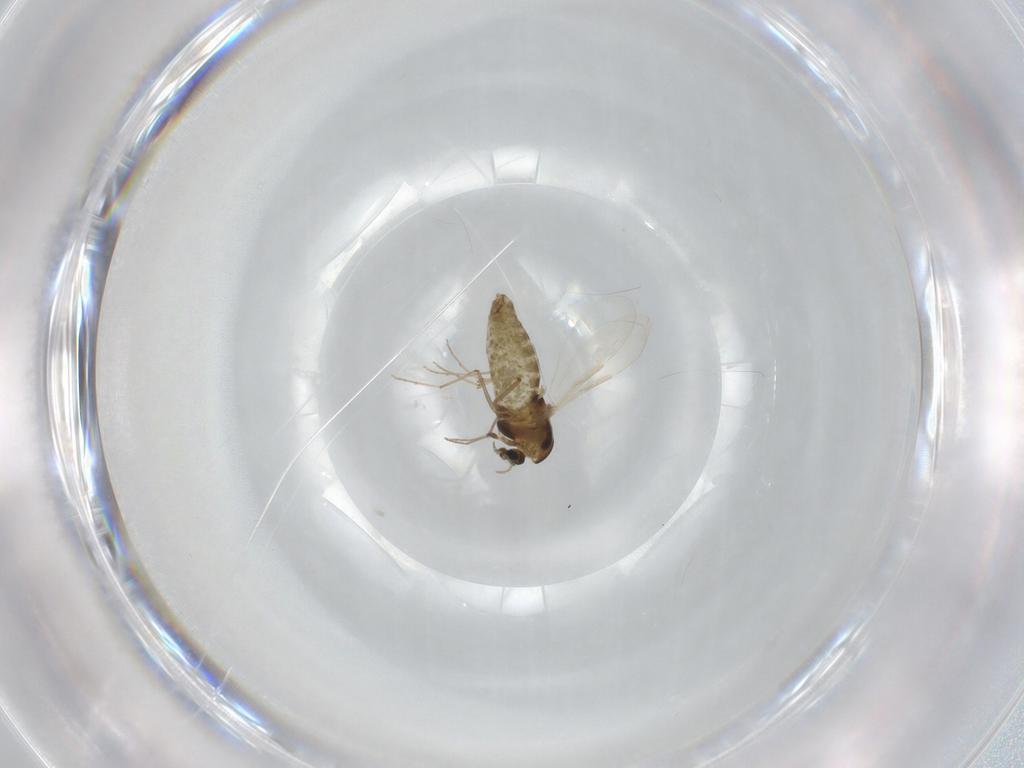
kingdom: Animalia
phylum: Arthropoda
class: Insecta
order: Diptera
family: Chironomidae
